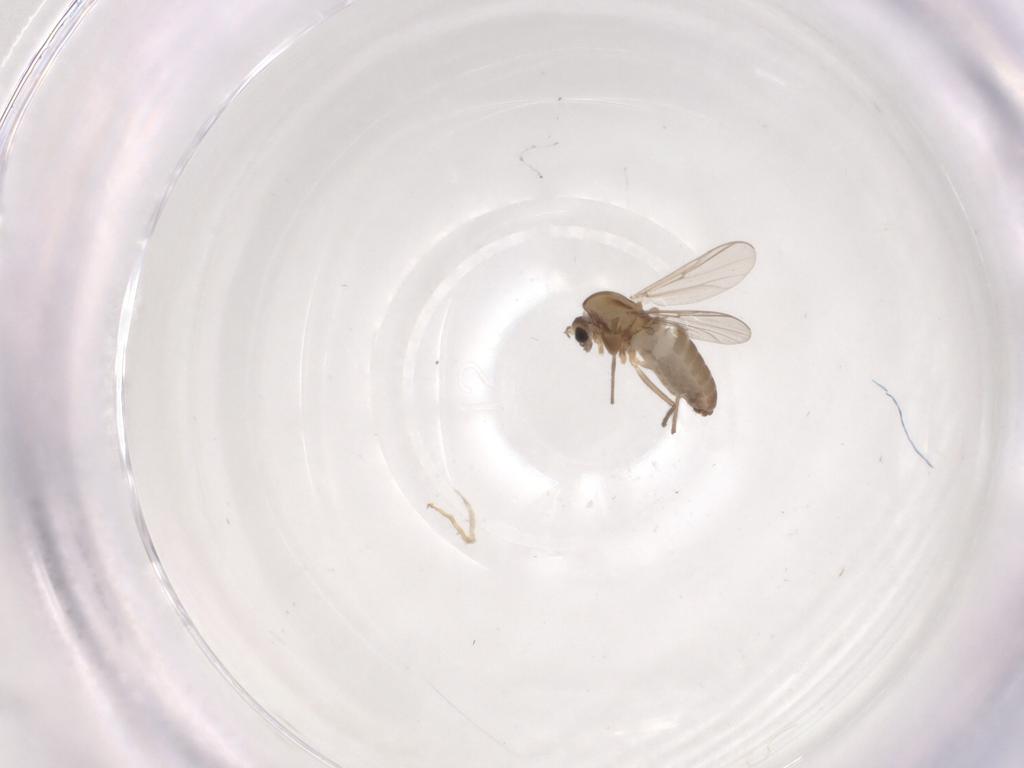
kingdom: Animalia
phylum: Arthropoda
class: Insecta
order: Diptera
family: Chironomidae
